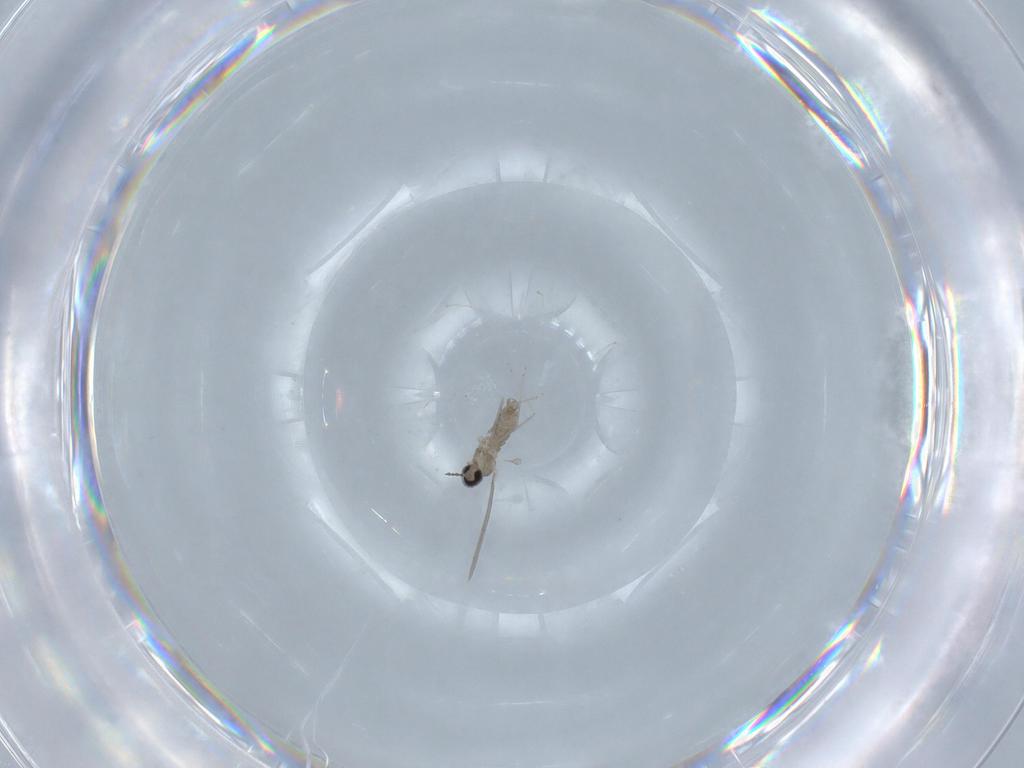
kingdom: Animalia
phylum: Arthropoda
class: Insecta
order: Diptera
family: Cecidomyiidae
